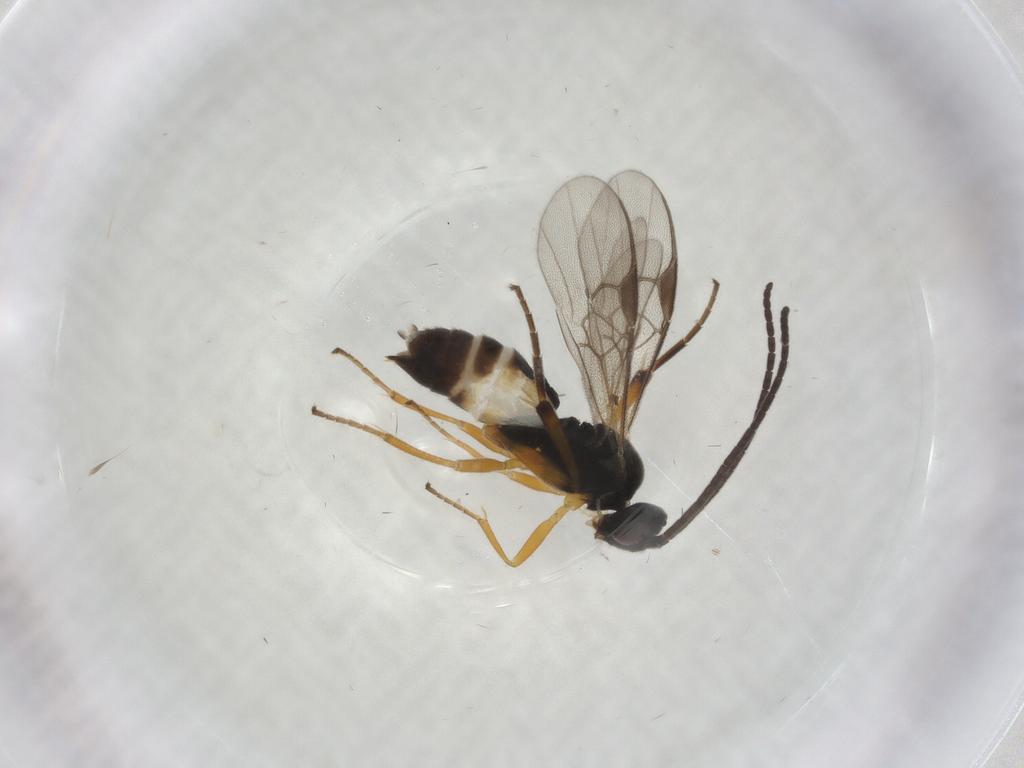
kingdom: Animalia
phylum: Arthropoda
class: Insecta
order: Hymenoptera
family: Braconidae
